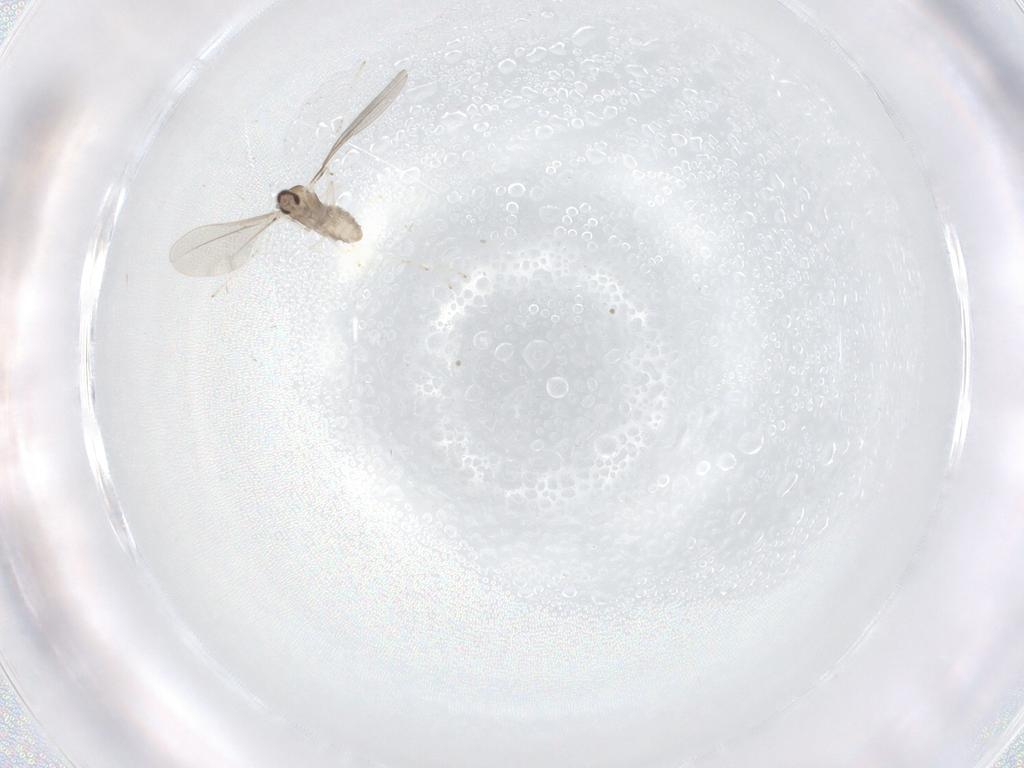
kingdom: Animalia
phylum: Arthropoda
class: Insecta
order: Diptera
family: Cecidomyiidae
